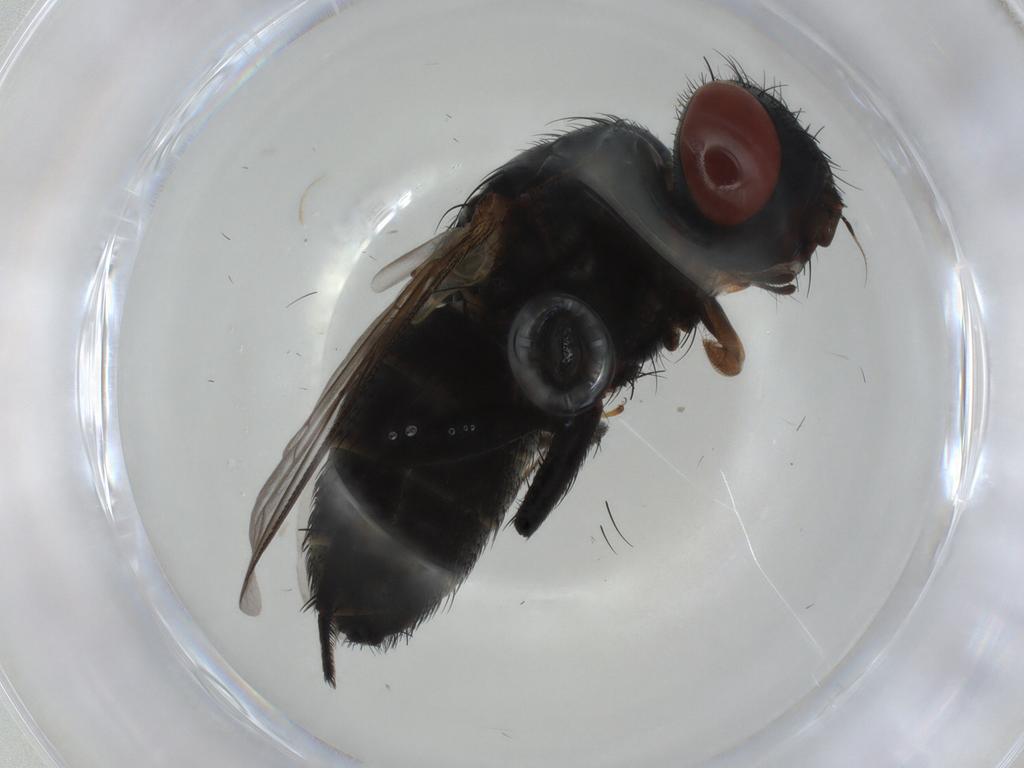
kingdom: Animalia
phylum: Arthropoda
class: Insecta
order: Diptera
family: Sarcophagidae
